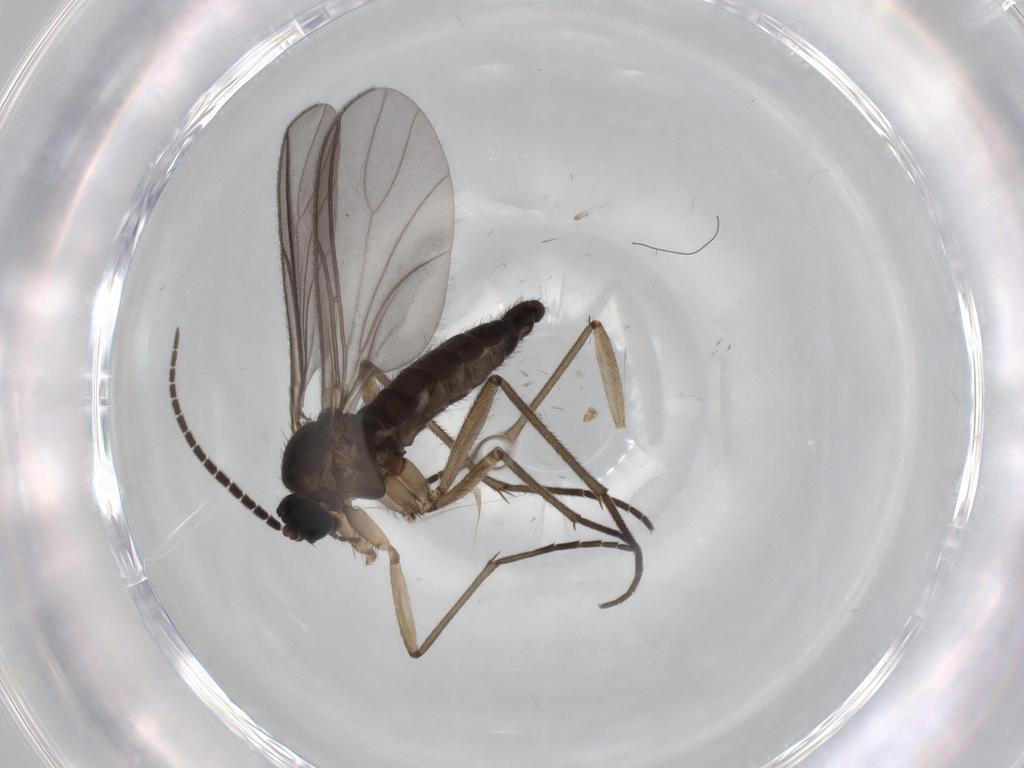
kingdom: Animalia
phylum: Arthropoda
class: Insecta
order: Diptera
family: Sciaridae
